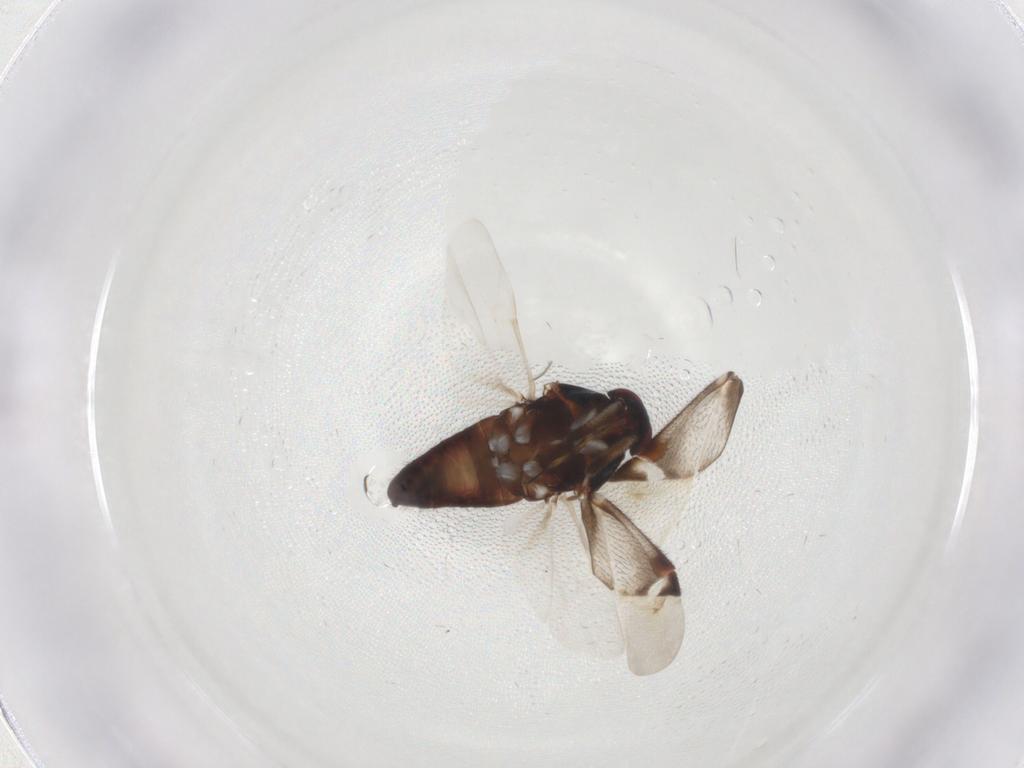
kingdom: Animalia
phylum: Arthropoda
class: Insecta
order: Hemiptera
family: Miridae
